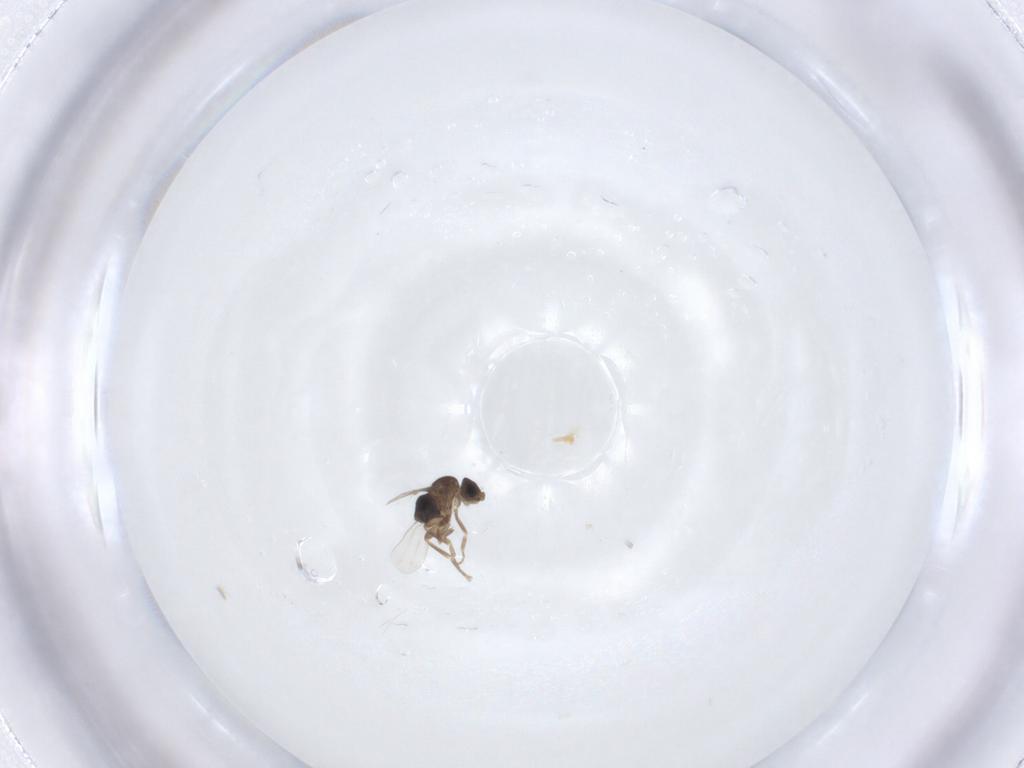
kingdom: Animalia
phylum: Arthropoda
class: Insecta
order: Diptera
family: Phoridae
